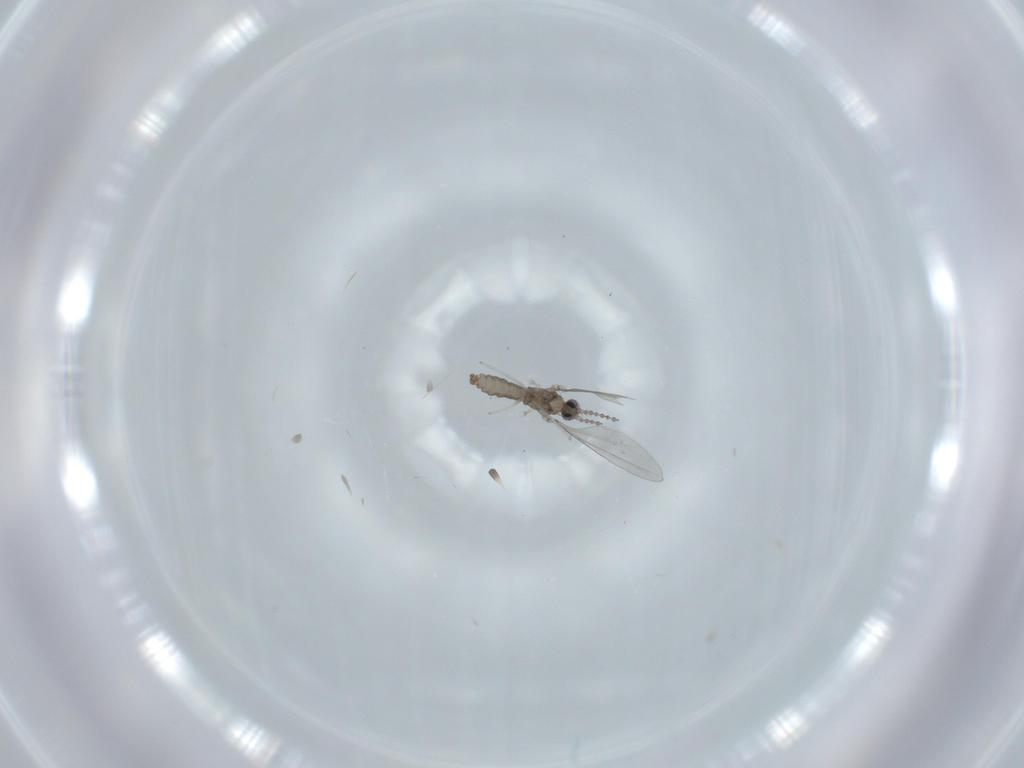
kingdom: Animalia
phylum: Arthropoda
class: Insecta
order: Diptera
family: Cecidomyiidae
